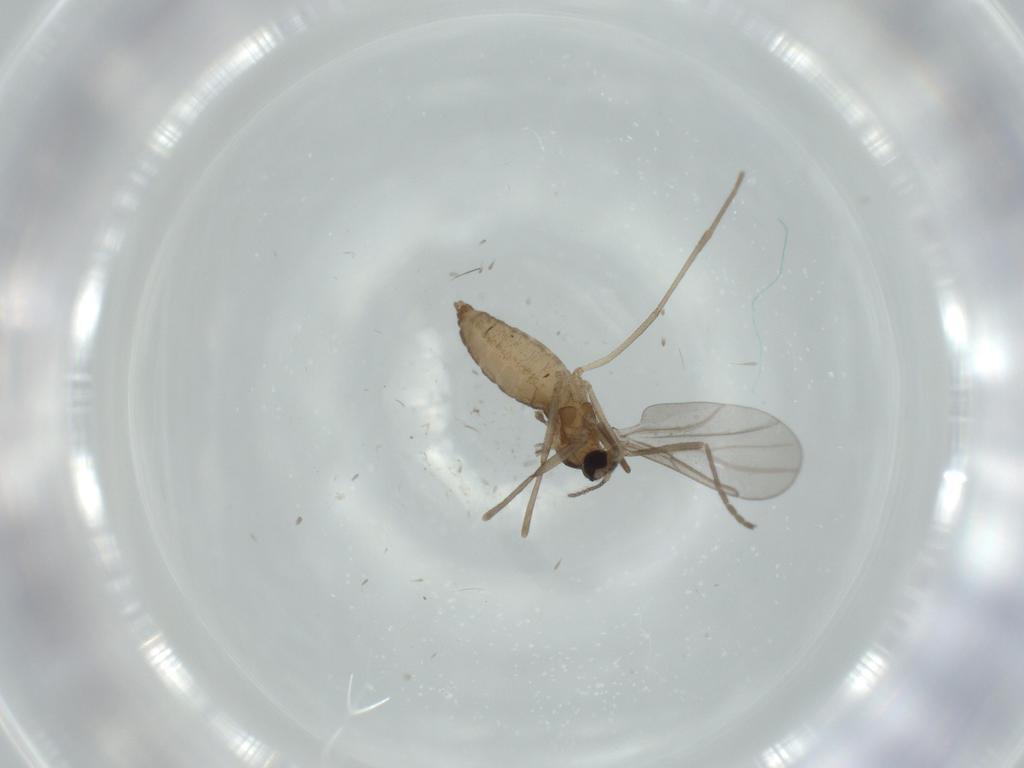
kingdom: Animalia
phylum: Arthropoda
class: Insecta
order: Diptera
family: Cecidomyiidae
